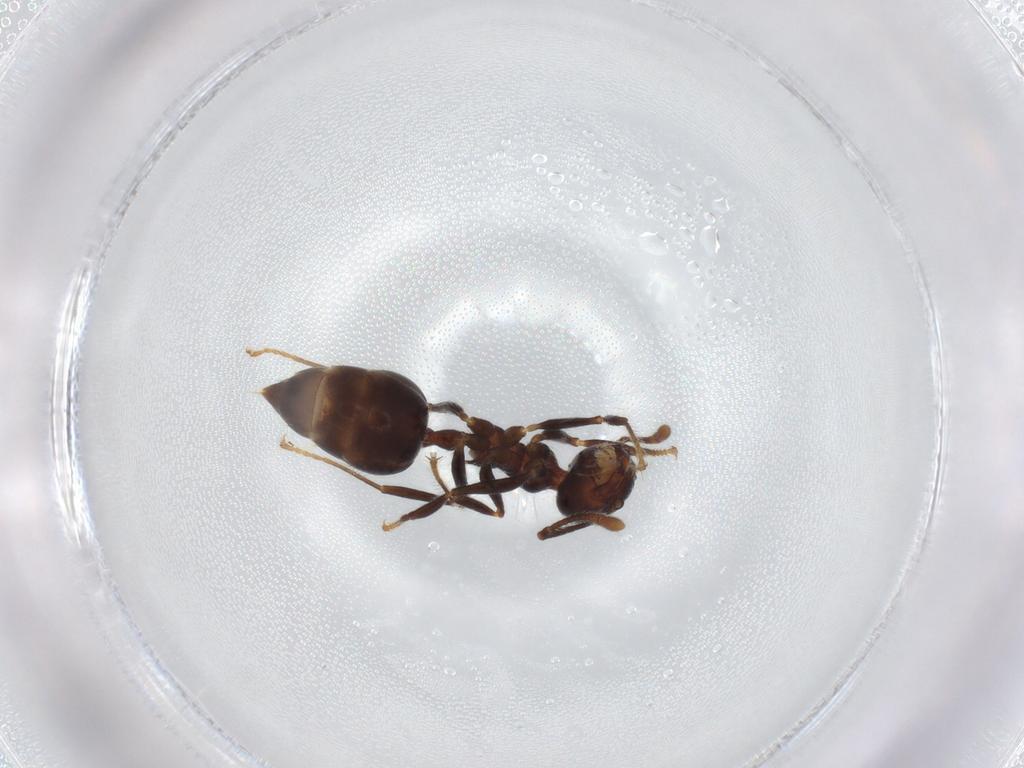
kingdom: Animalia
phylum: Arthropoda
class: Insecta
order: Hymenoptera
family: Formicidae
